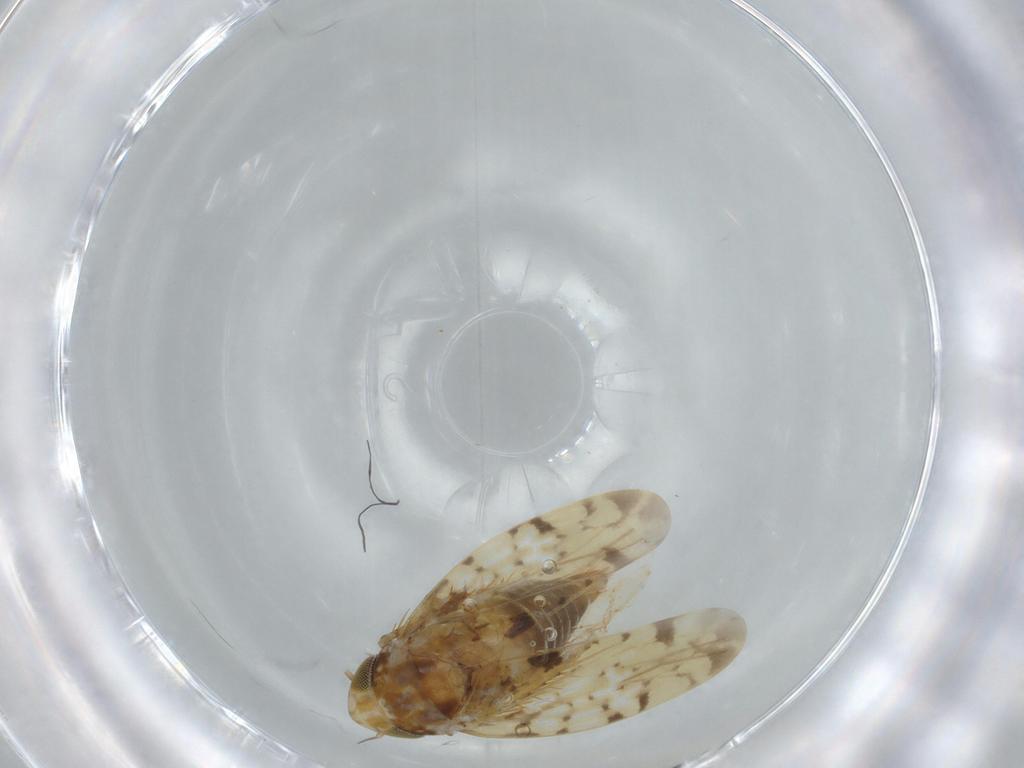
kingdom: Animalia
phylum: Arthropoda
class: Insecta
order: Hemiptera
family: Cicadellidae
